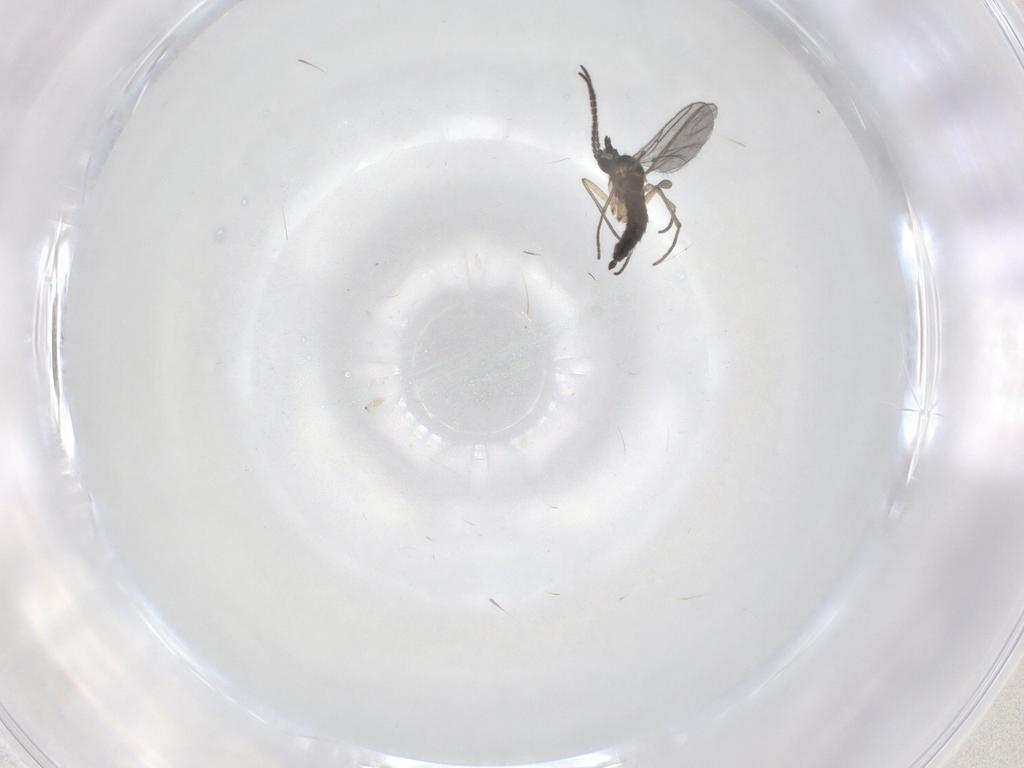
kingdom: Animalia
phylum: Arthropoda
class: Insecta
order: Diptera
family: Sciaridae
